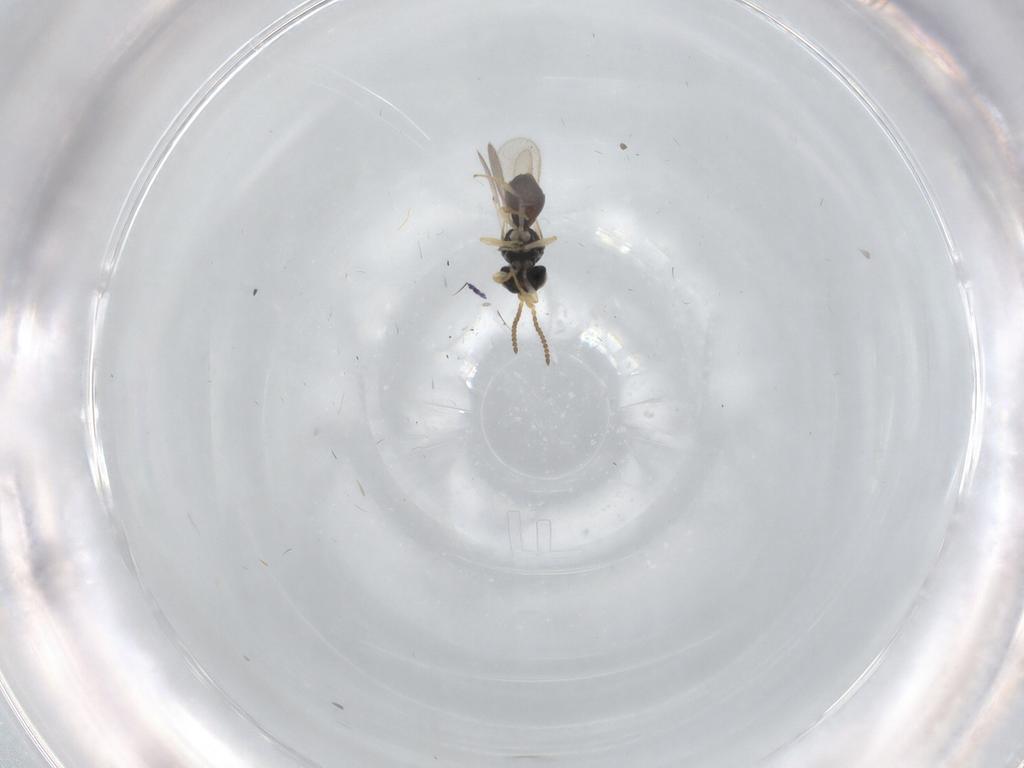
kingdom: Animalia
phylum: Arthropoda
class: Insecta
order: Hymenoptera
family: Scelionidae
